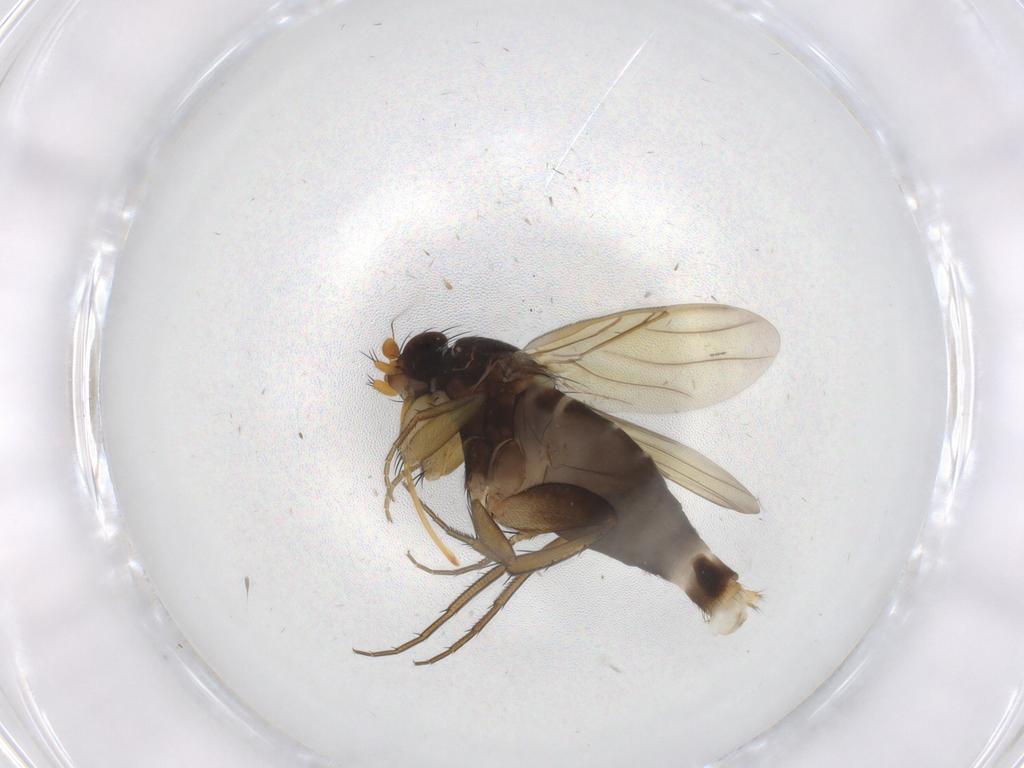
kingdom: Animalia
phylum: Arthropoda
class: Insecta
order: Diptera
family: Phoridae
